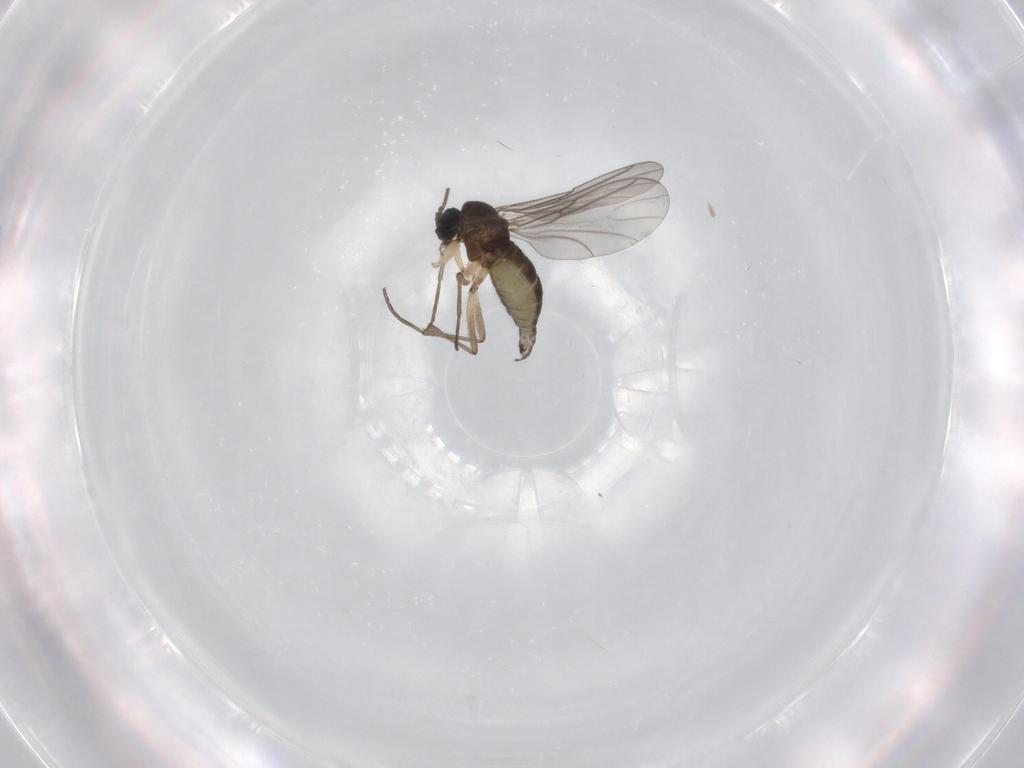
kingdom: Animalia
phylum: Arthropoda
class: Insecta
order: Diptera
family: Sciaridae
